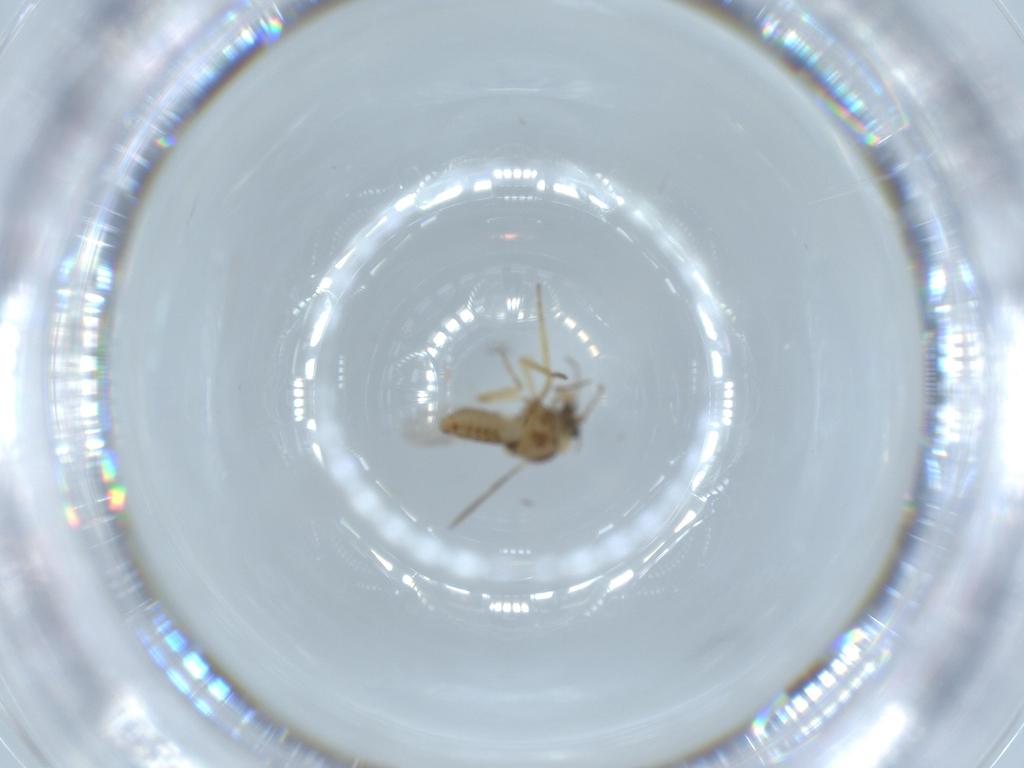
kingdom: Animalia
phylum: Arthropoda
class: Insecta
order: Diptera
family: Ceratopogonidae
